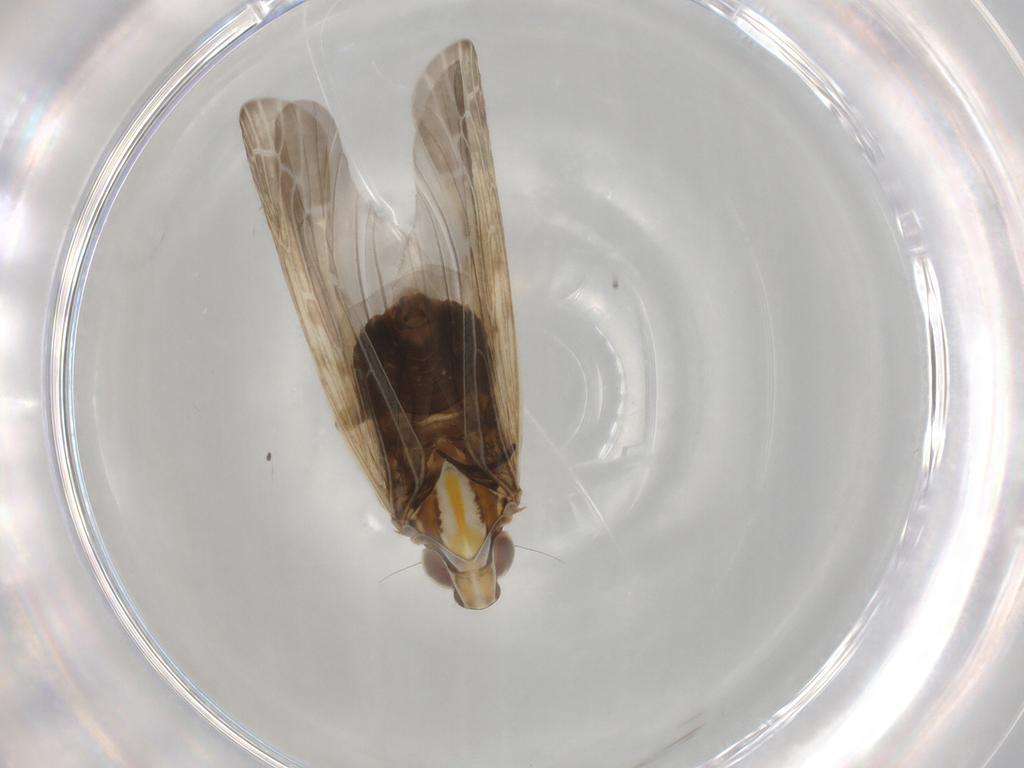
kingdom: Animalia
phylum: Arthropoda
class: Insecta
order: Hemiptera
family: Achilidae
